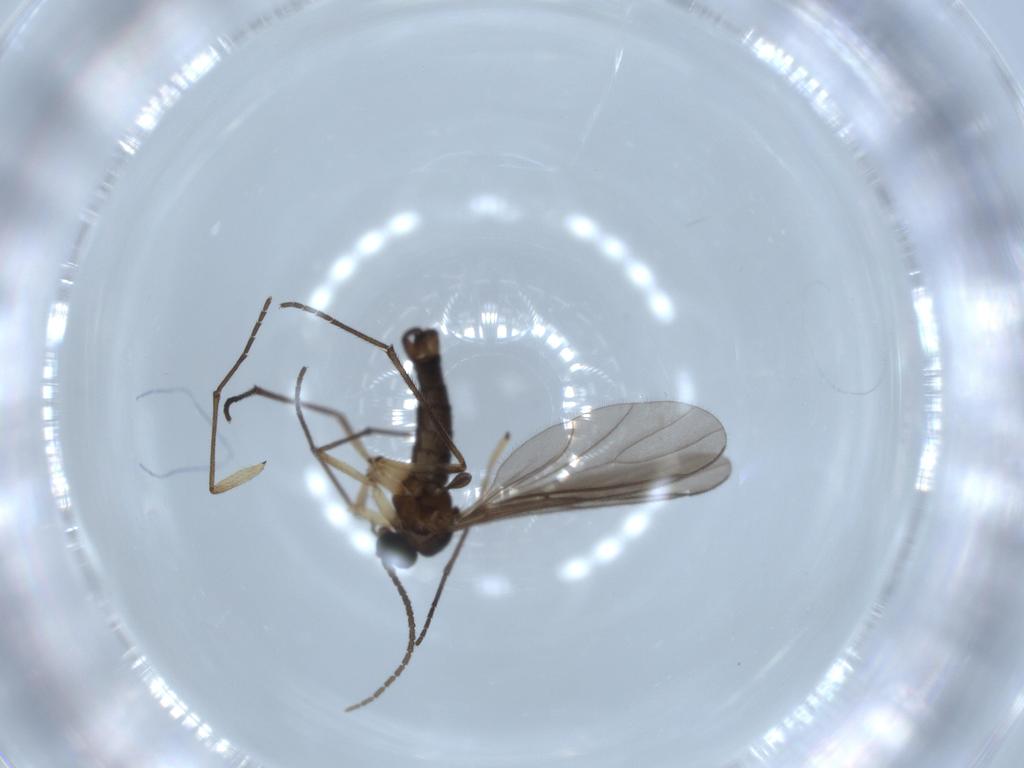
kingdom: Animalia
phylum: Arthropoda
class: Insecta
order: Diptera
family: Sciaridae
